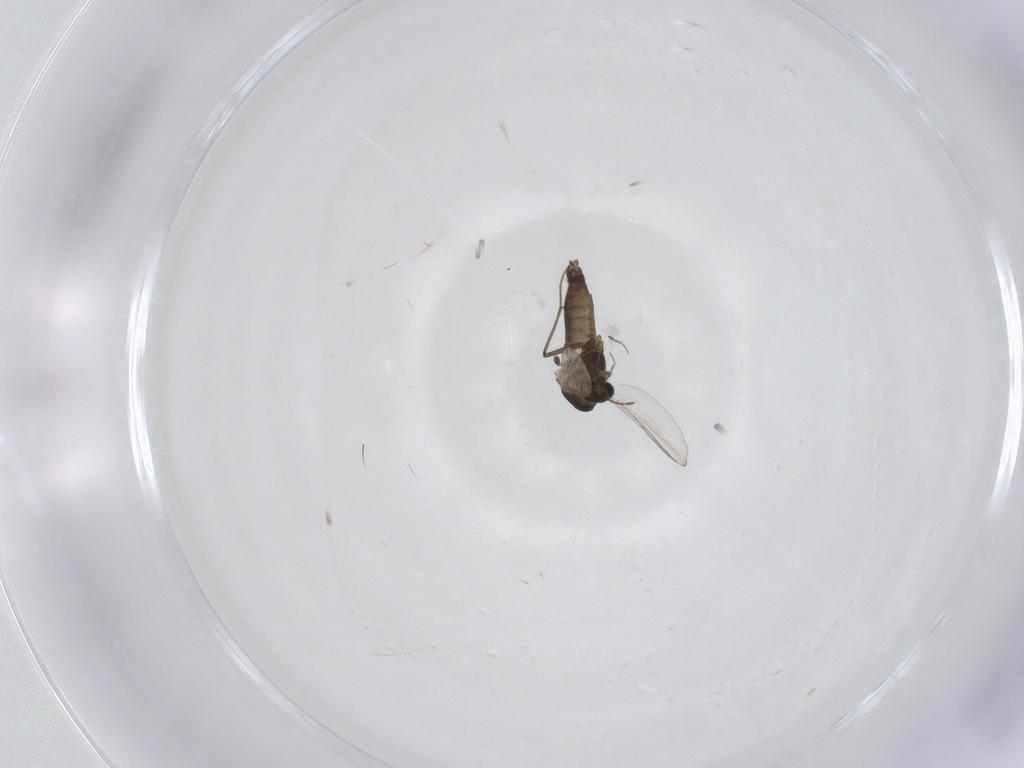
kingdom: Animalia
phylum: Arthropoda
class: Insecta
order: Diptera
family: Chironomidae
